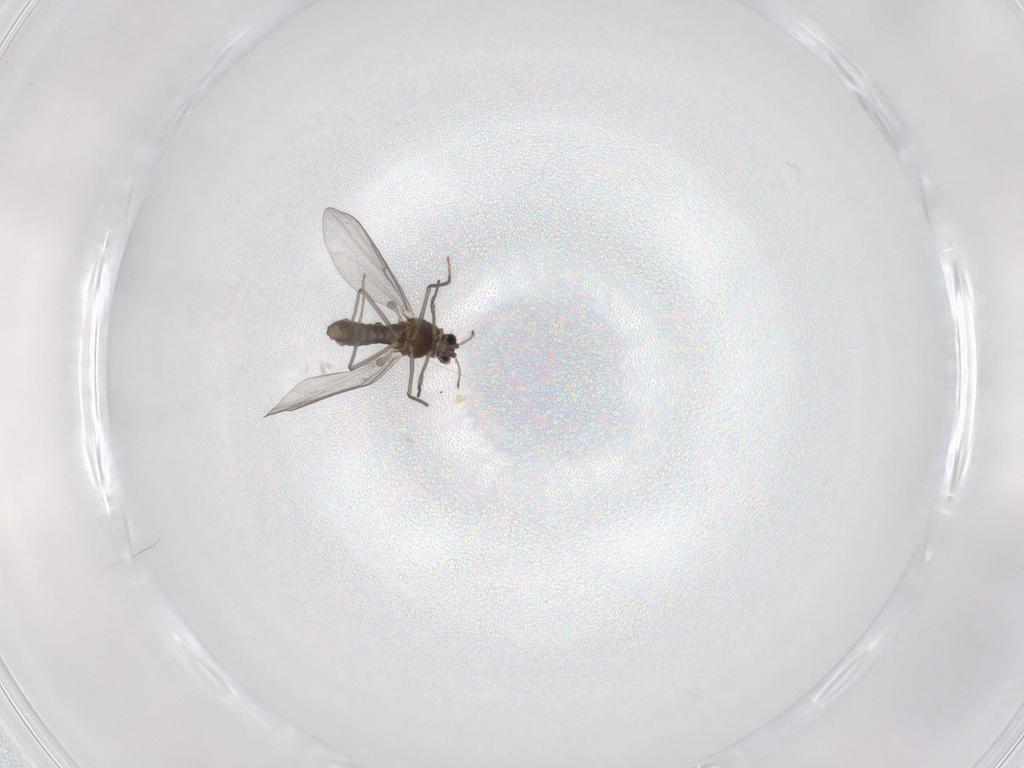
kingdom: Animalia
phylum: Arthropoda
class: Insecta
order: Diptera
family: Chironomidae
